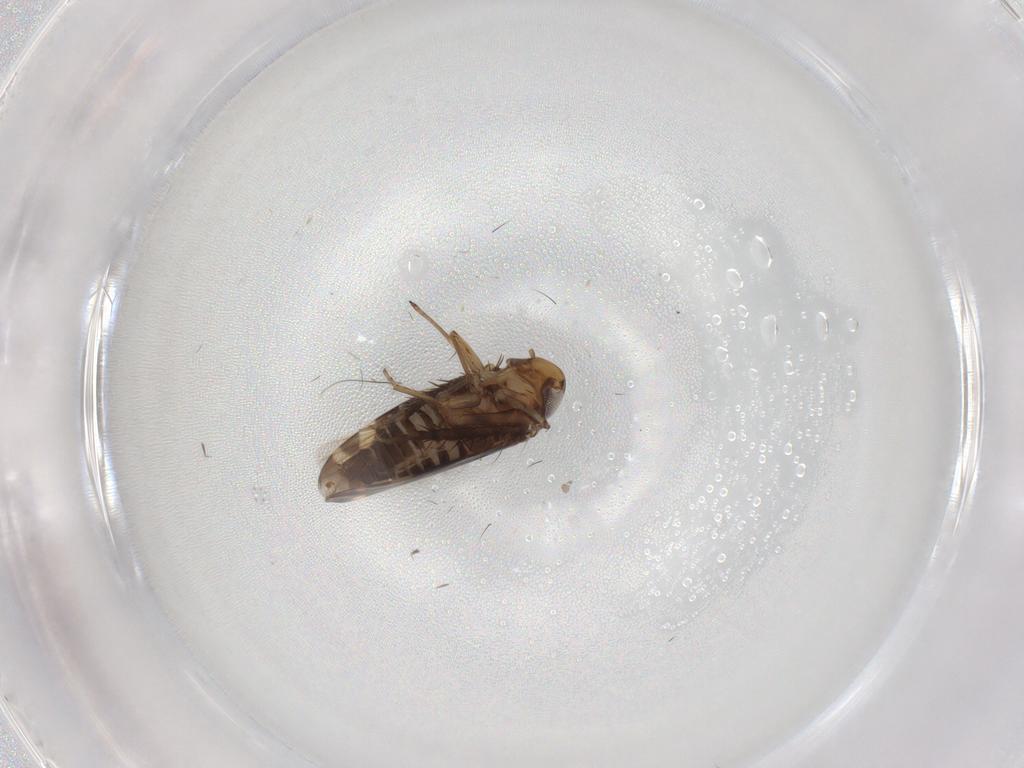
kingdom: Animalia
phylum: Arthropoda
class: Insecta
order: Hemiptera
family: Cicadellidae
